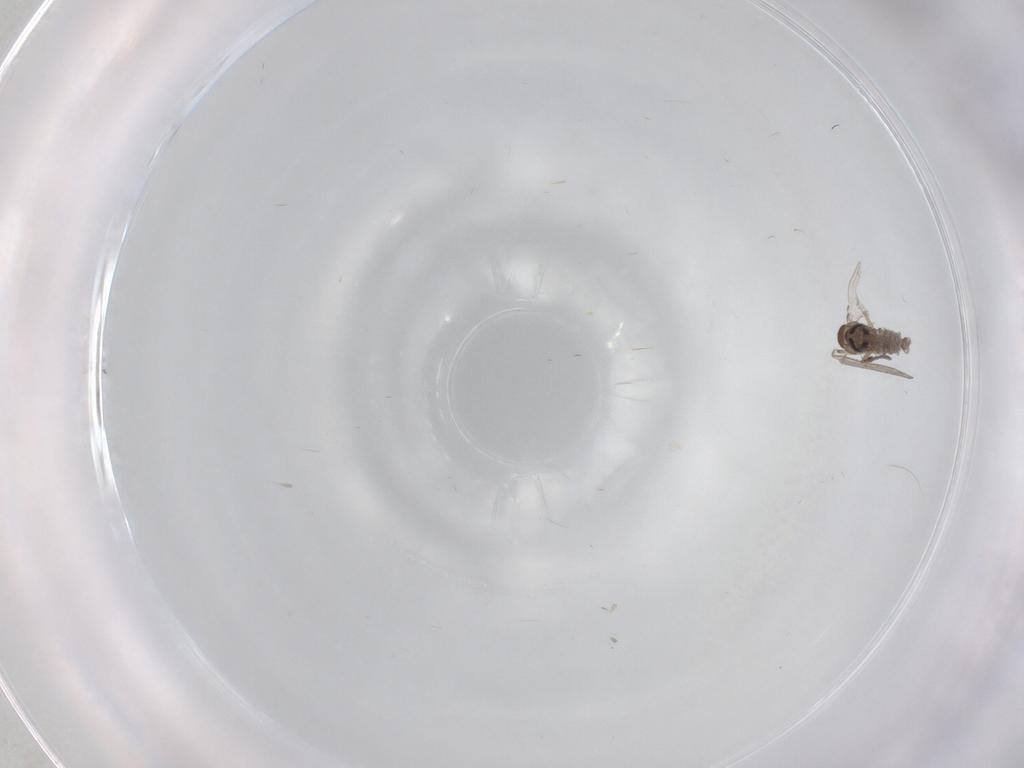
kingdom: Animalia
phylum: Arthropoda
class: Insecta
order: Diptera
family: Psychodidae
